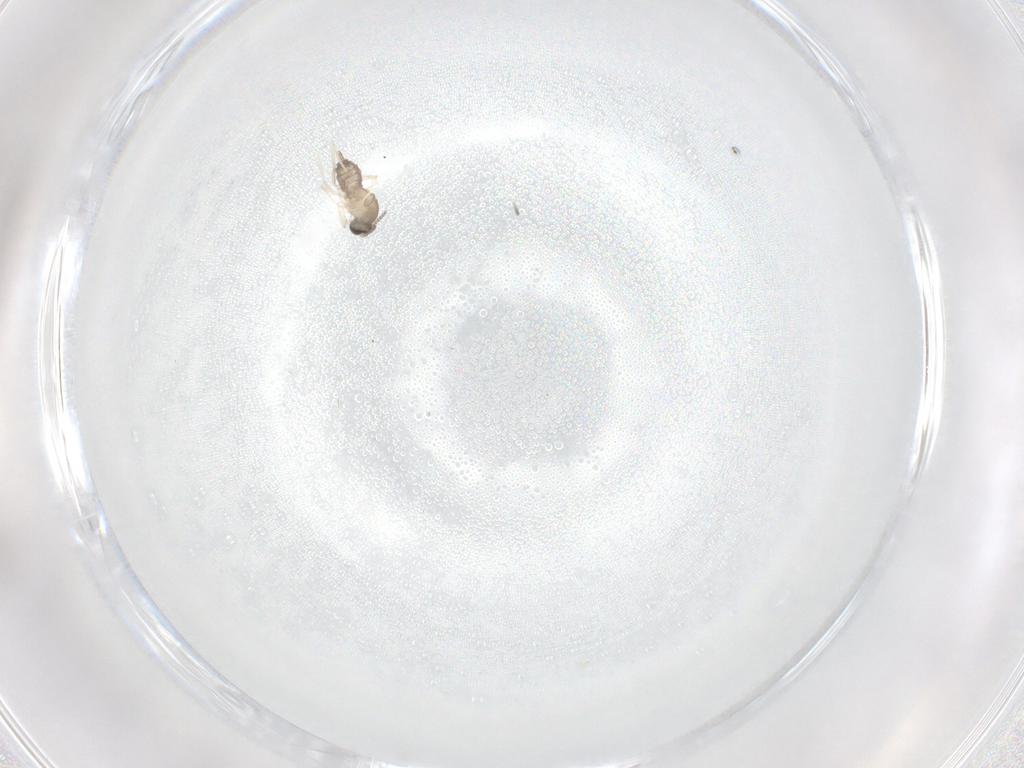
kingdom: Animalia
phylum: Arthropoda
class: Insecta
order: Diptera
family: Cecidomyiidae
